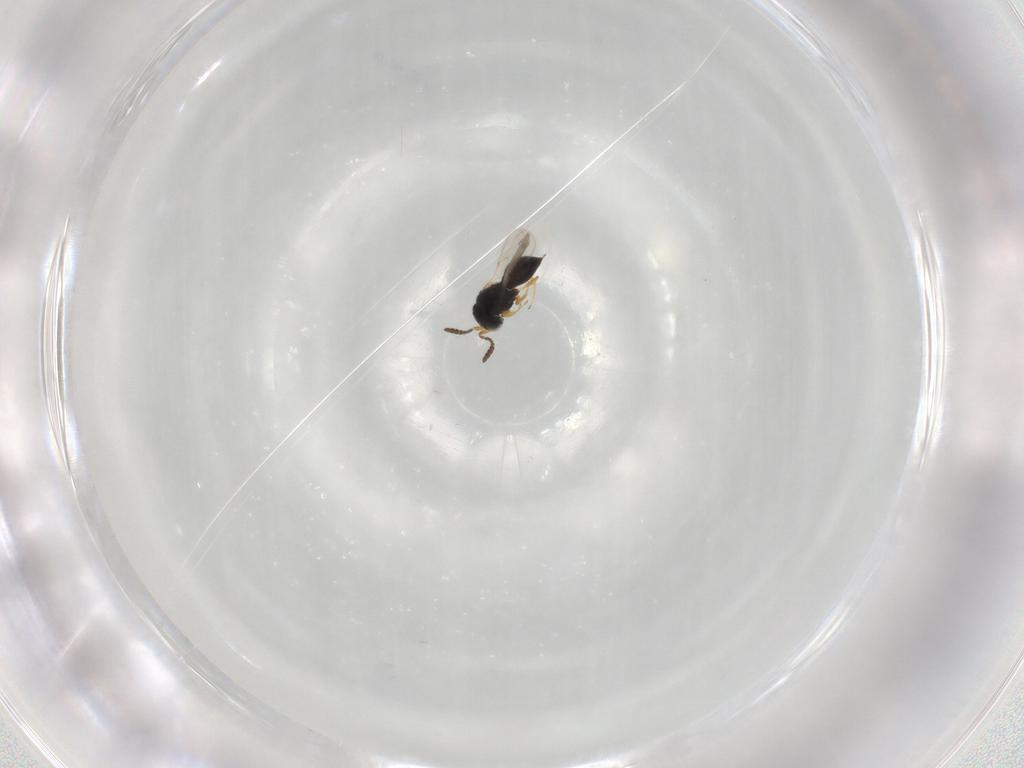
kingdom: Animalia
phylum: Arthropoda
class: Insecta
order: Hymenoptera
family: Scelionidae
